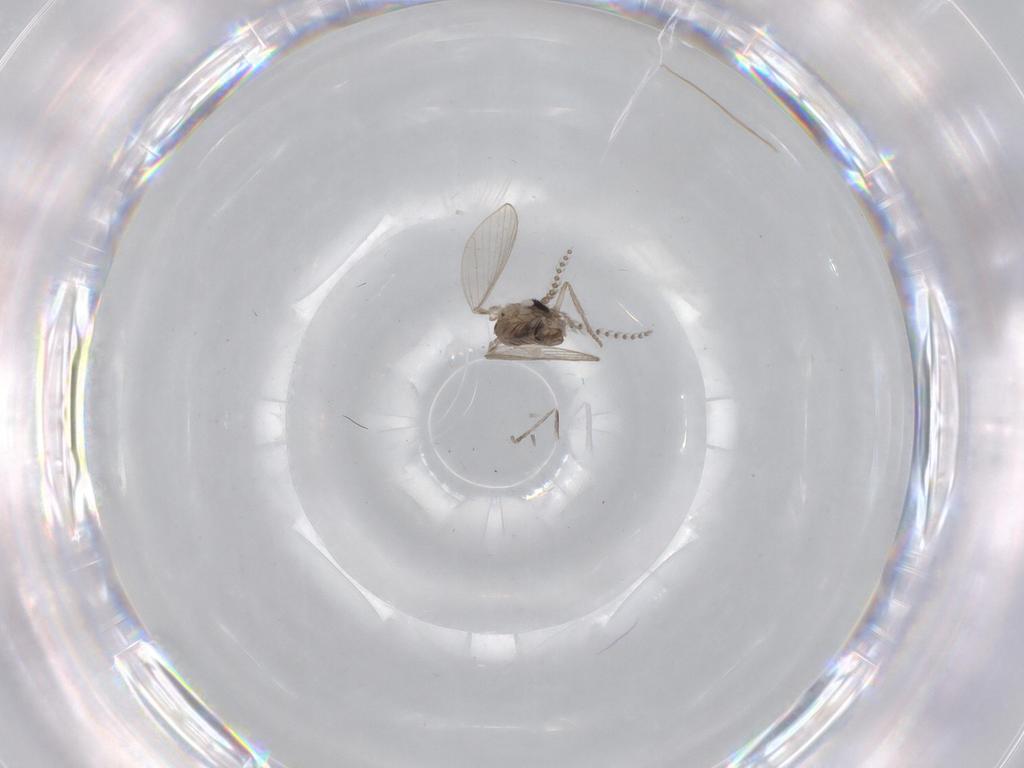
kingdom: Animalia
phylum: Arthropoda
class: Insecta
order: Diptera
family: Psychodidae
